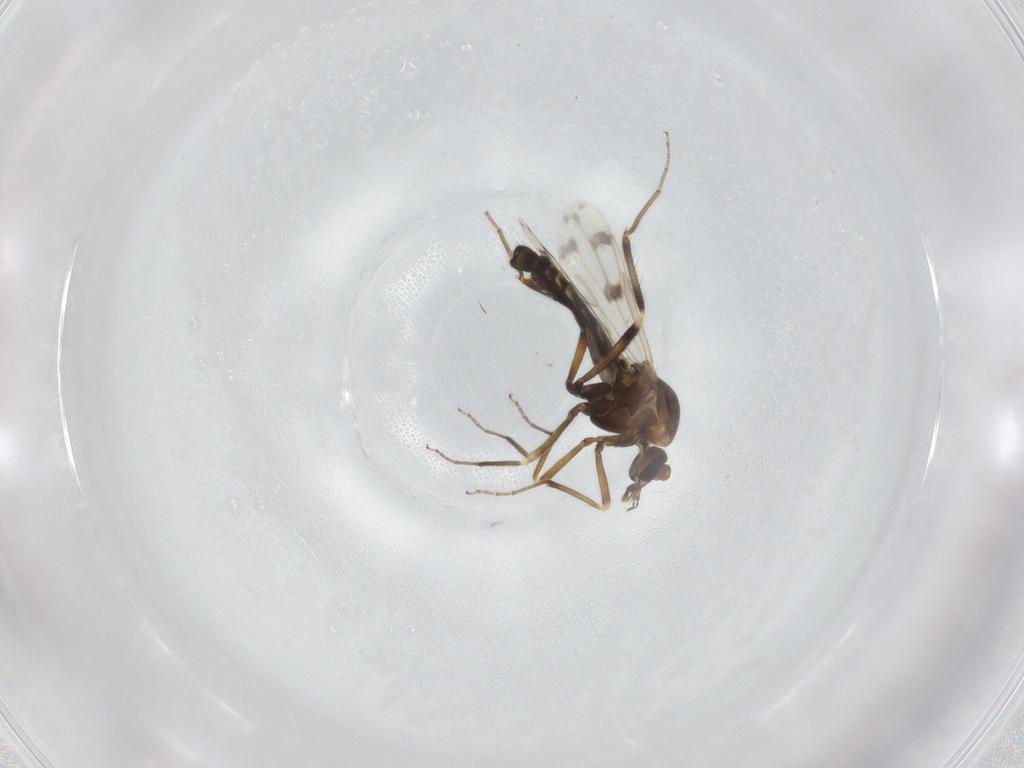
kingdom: Animalia
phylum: Arthropoda
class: Insecta
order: Diptera
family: Ceratopogonidae
